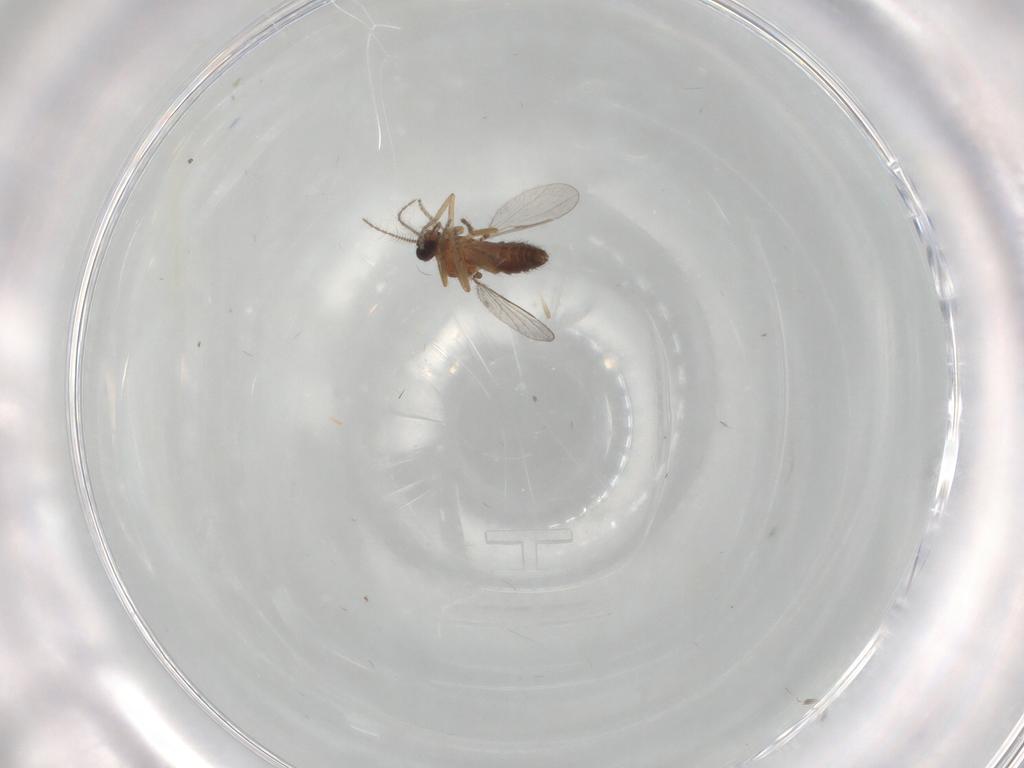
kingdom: Animalia
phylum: Arthropoda
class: Insecta
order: Diptera
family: Ceratopogonidae
